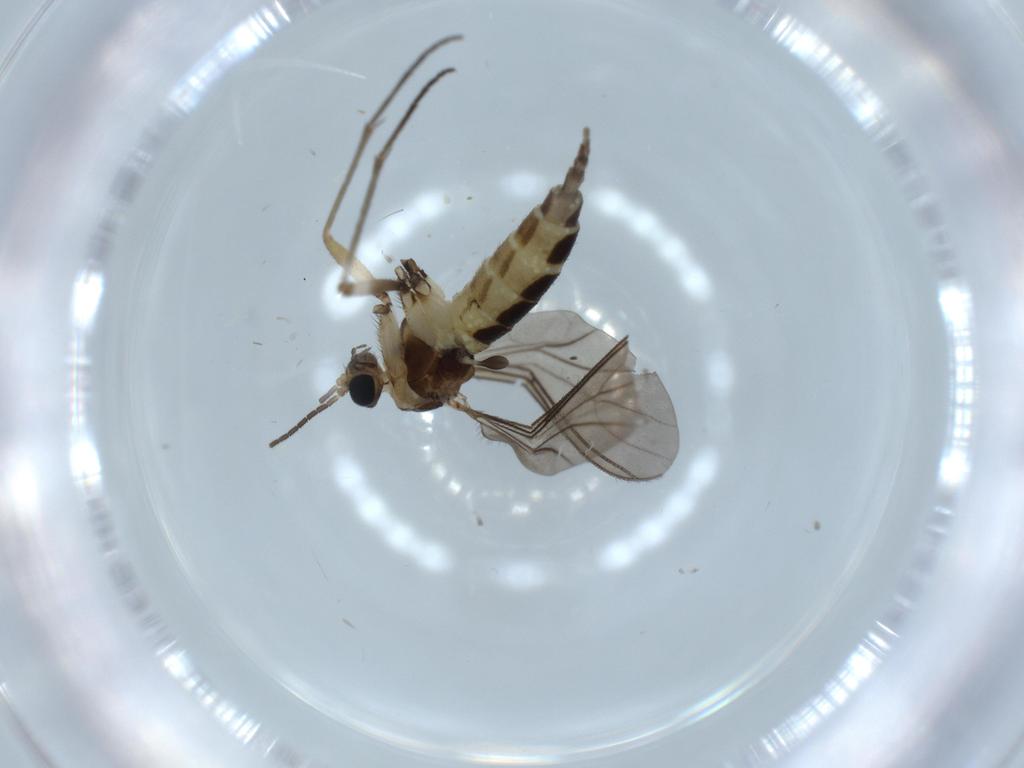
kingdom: Animalia
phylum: Arthropoda
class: Insecta
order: Diptera
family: Sciaridae
